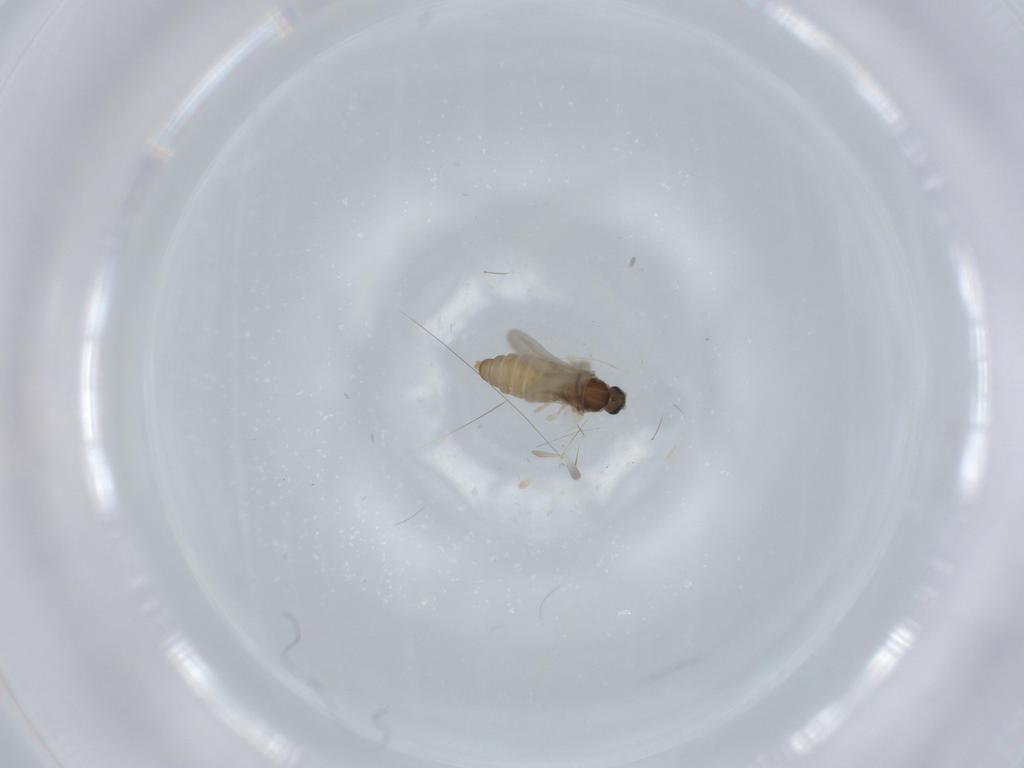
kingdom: Animalia
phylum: Arthropoda
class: Insecta
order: Diptera
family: Cecidomyiidae
